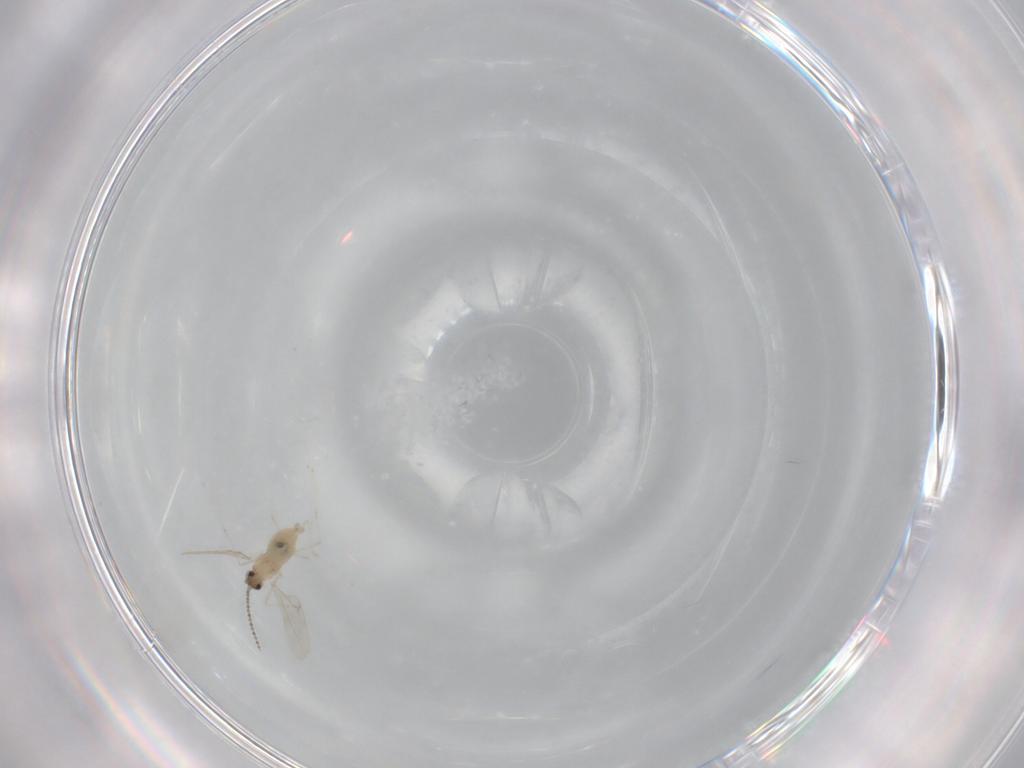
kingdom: Animalia
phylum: Arthropoda
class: Insecta
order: Diptera
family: Cecidomyiidae
